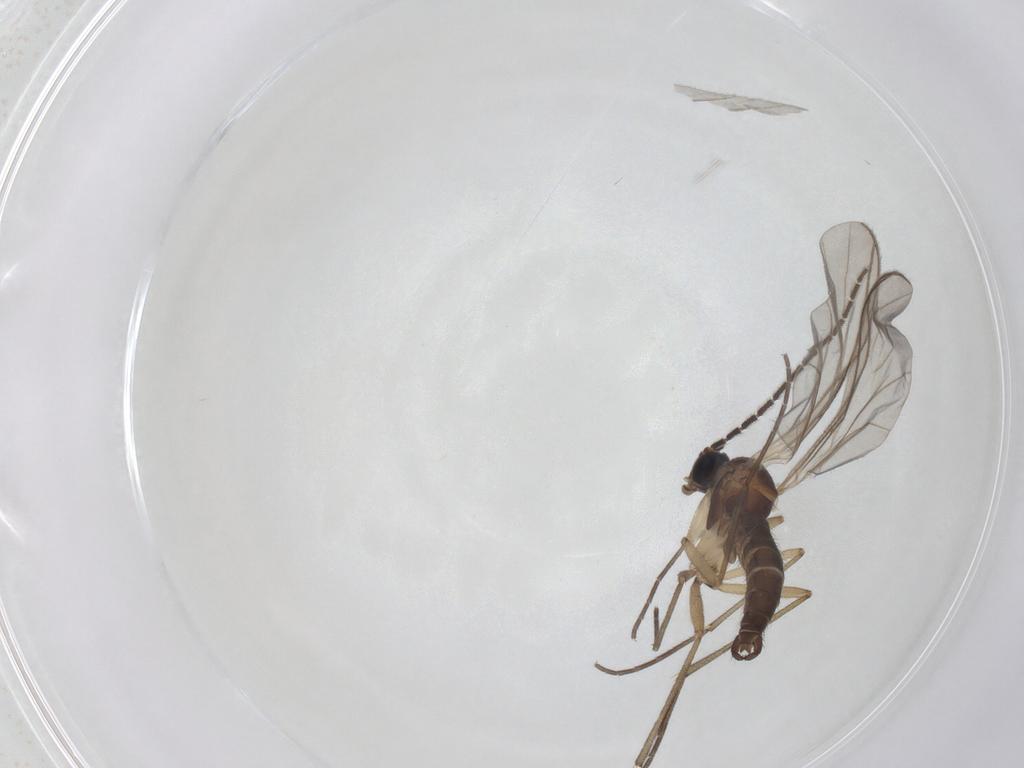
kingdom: Animalia
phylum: Arthropoda
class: Insecta
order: Diptera
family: Sciaridae
